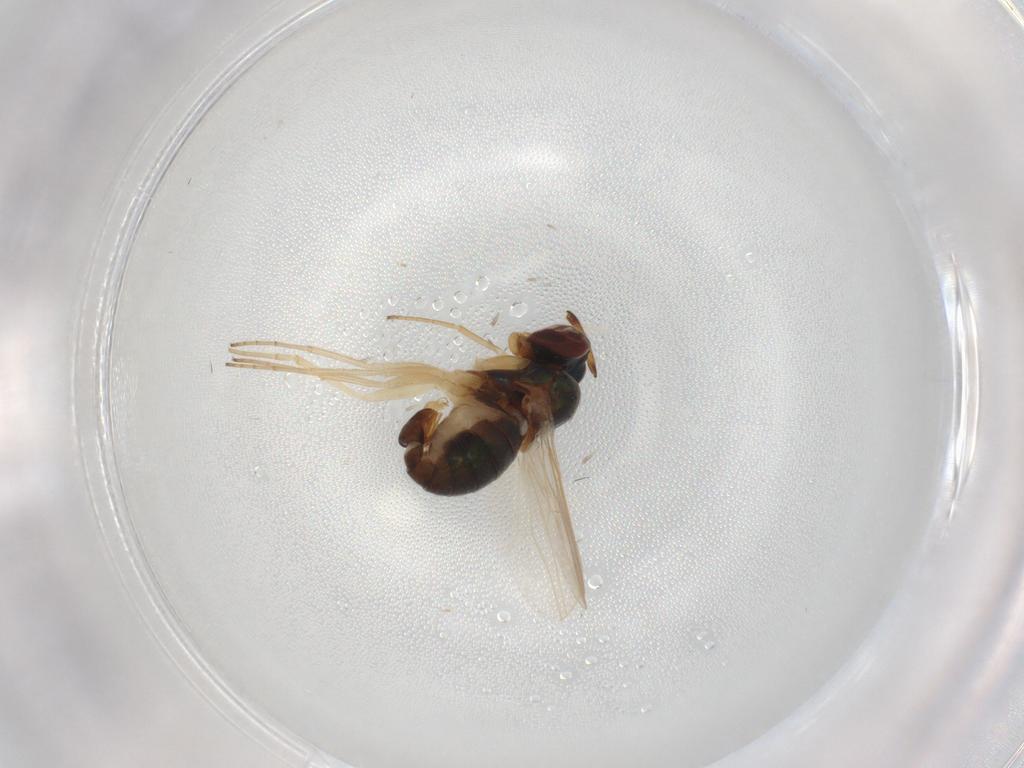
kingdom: Animalia
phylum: Arthropoda
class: Insecta
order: Diptera
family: Dolichopodidae
